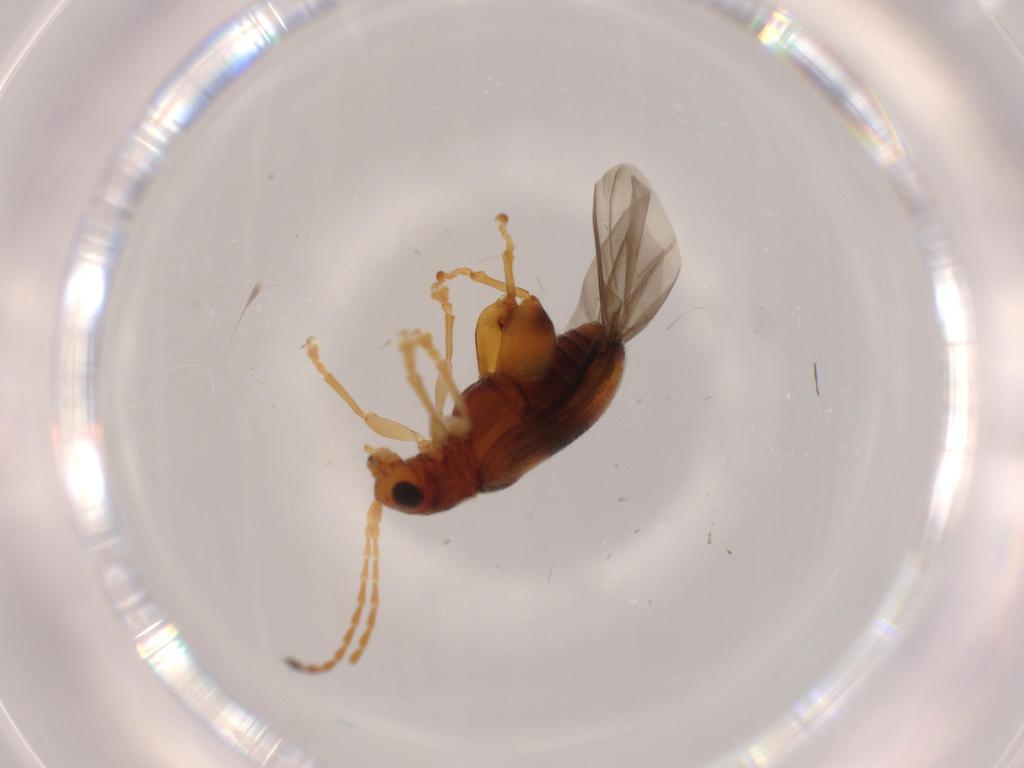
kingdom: Animalia
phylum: Arthropoda
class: Insecta
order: Coleoptera
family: Chrysomelidae
